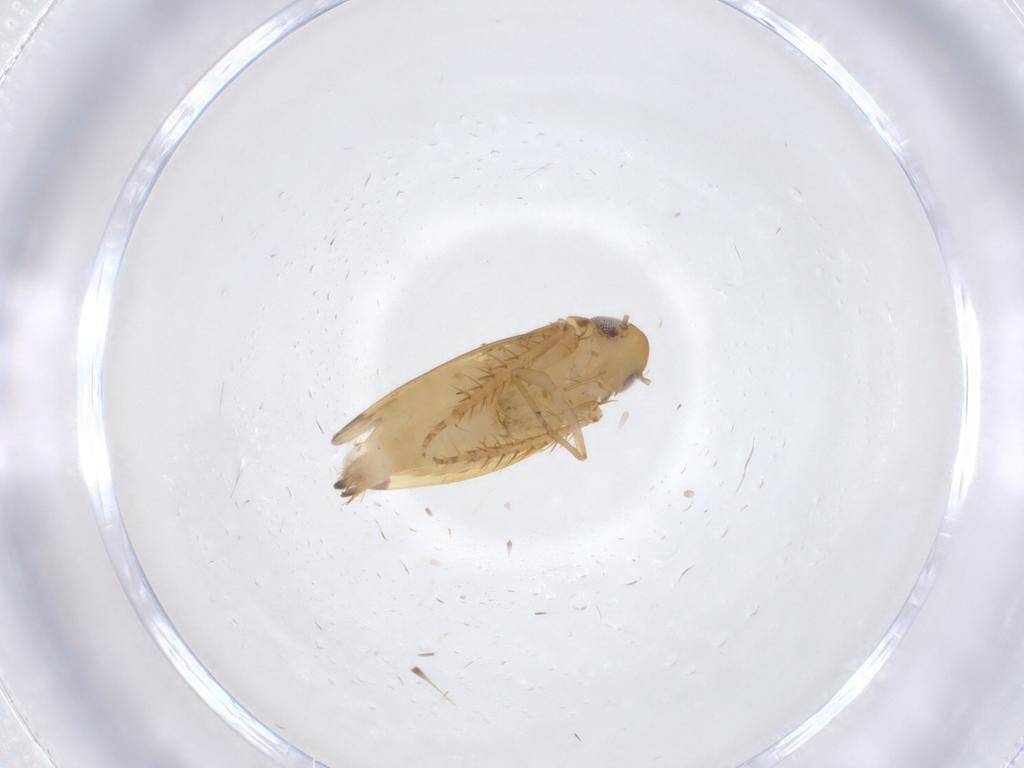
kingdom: Animalia
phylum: Arthropoda
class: Insecta
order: Hemiptera
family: Cicadellidae
